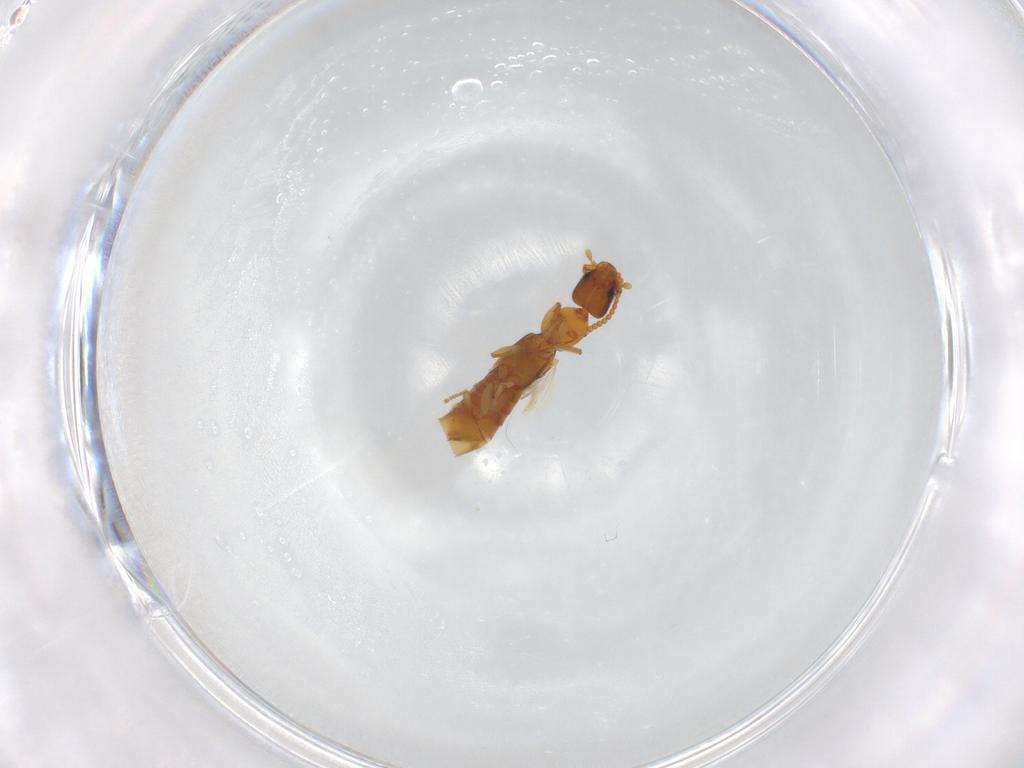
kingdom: Animalia
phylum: Arthropoda
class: Insecta
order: Coleoptera
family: Staphylinidae
